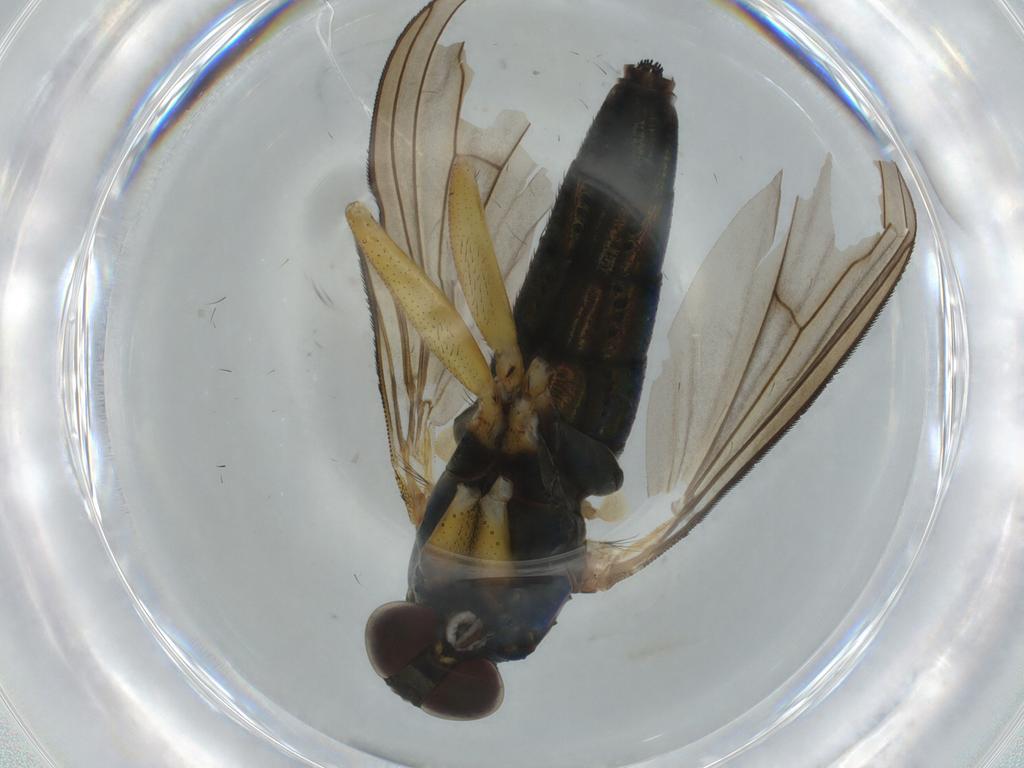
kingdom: Animalia
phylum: Arthropoda
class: Insecta
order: Diptera
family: Dolichopodidae
